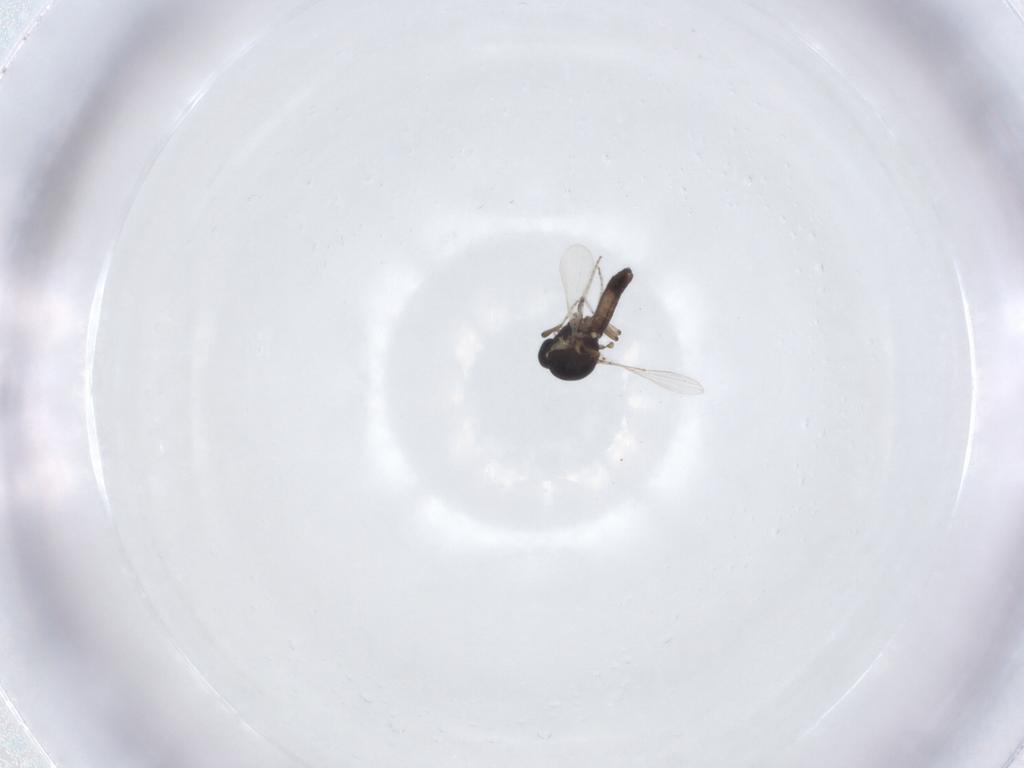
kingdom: Animalia
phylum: Arthropoda
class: Insecta
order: Diptera
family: Ceratopogonidae
